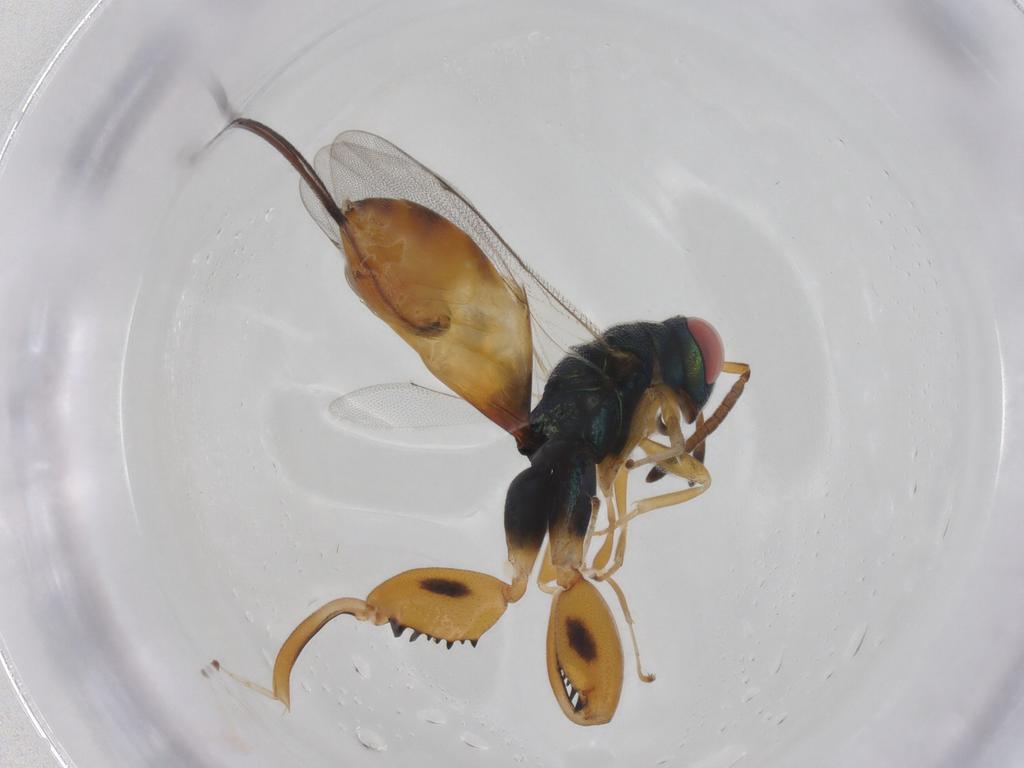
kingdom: Animalia
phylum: Arthropoda
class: Insecta
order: Hymenoptera
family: Torymidae
